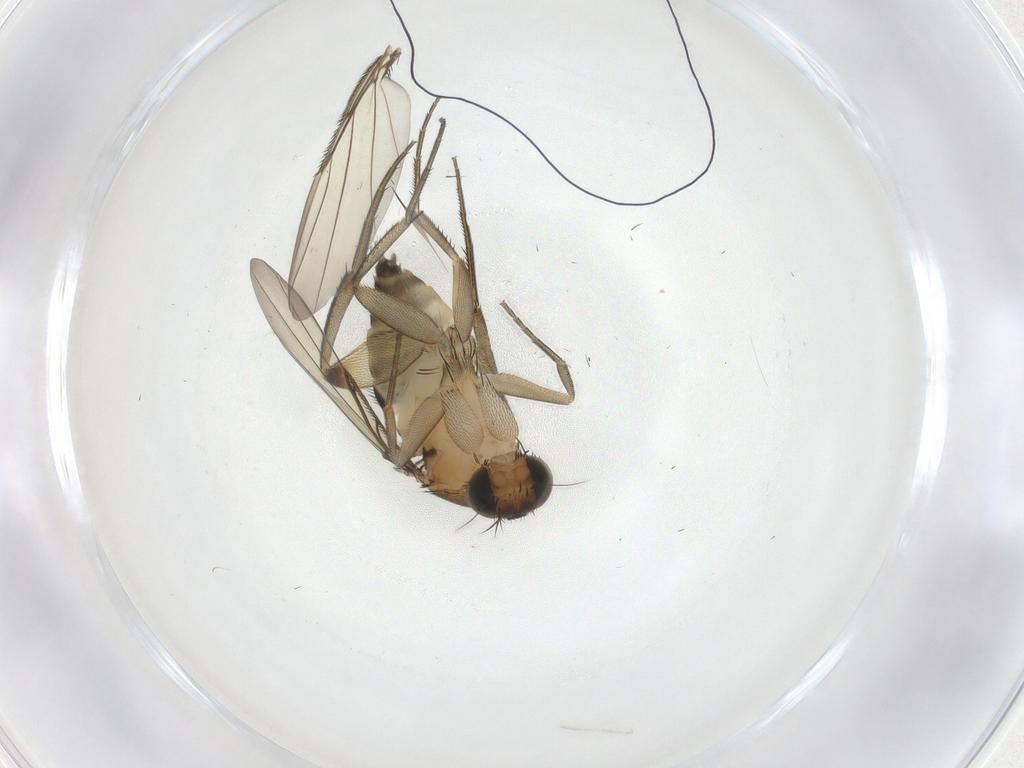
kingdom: Animalia
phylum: Arthropoda
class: Insecta
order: Diptera
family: Phoridae
